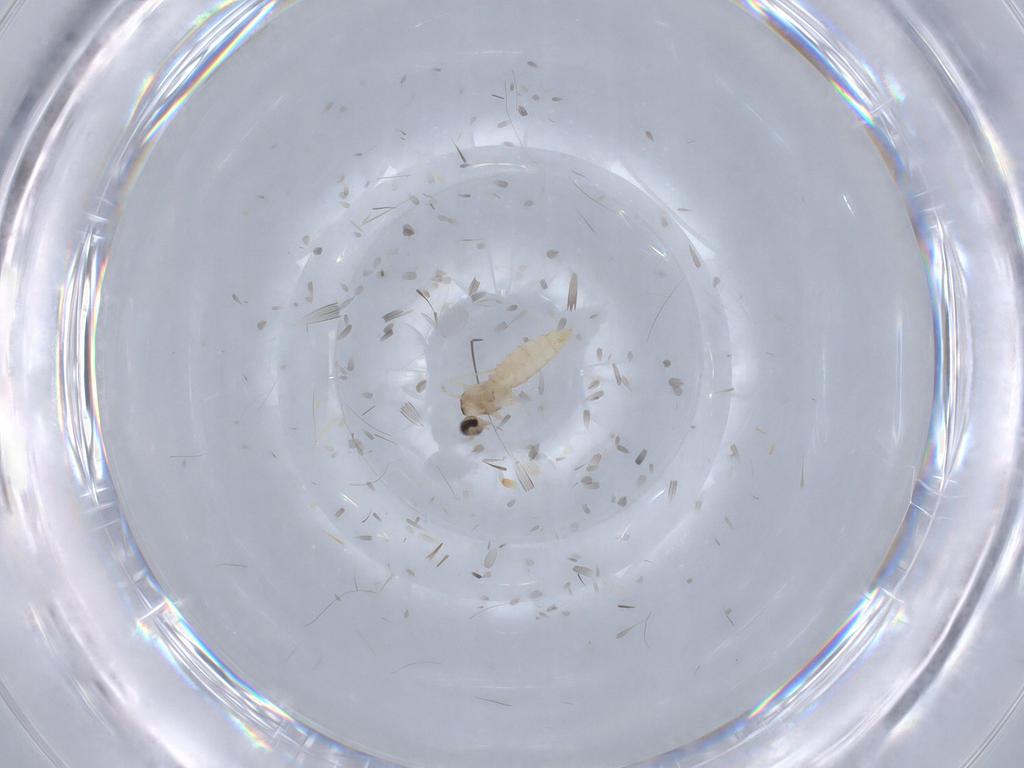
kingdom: Animalia
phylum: Arthropoda
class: Insecta
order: Diptera
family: Cecidomyiidae
